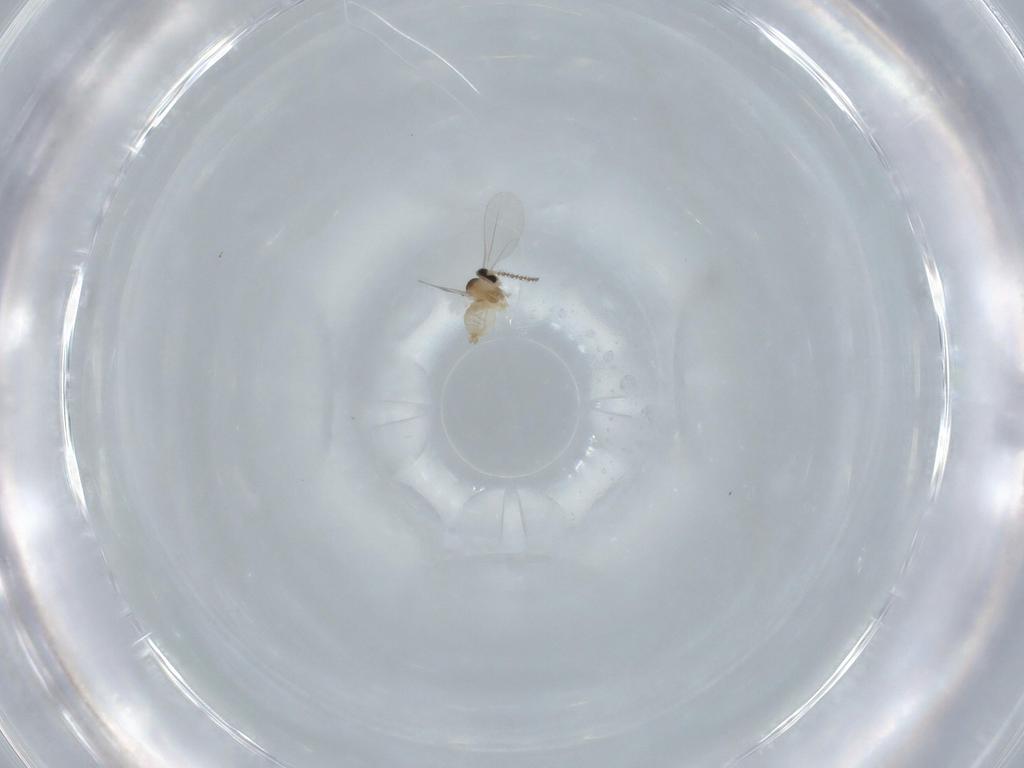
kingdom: Animalia
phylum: Arthropoda
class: Insecta
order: Diptera
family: Cecidomyiidae
